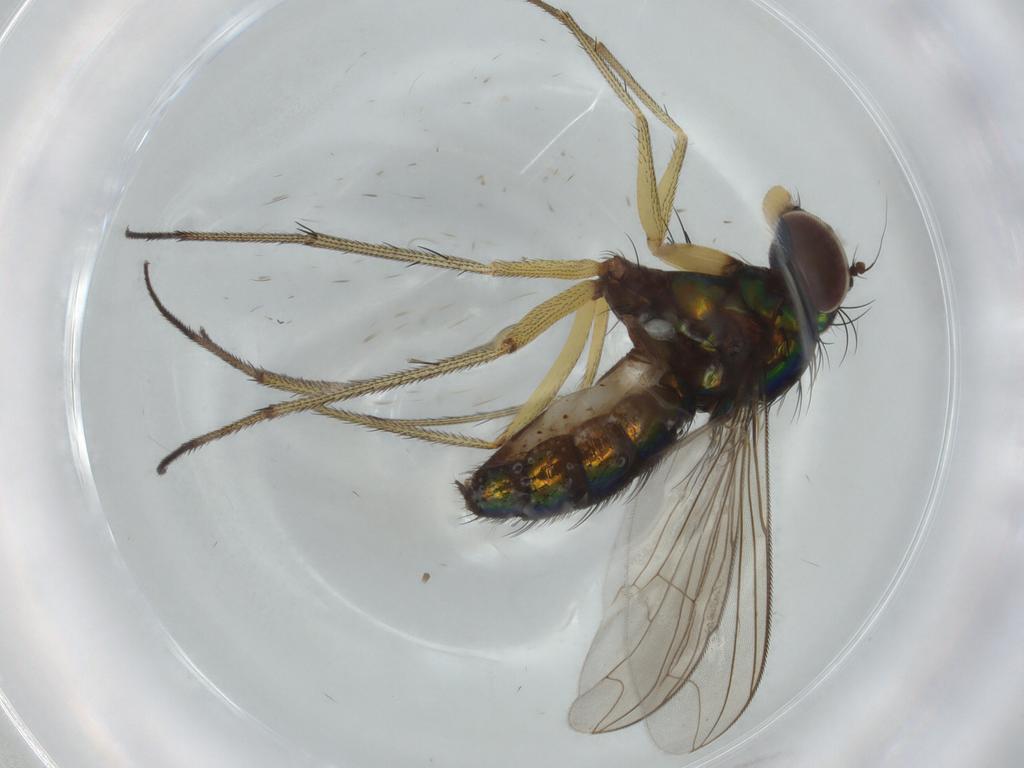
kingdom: Animalia
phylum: Arthropoda
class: Insecta
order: Diptera
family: Dolichopodidae
